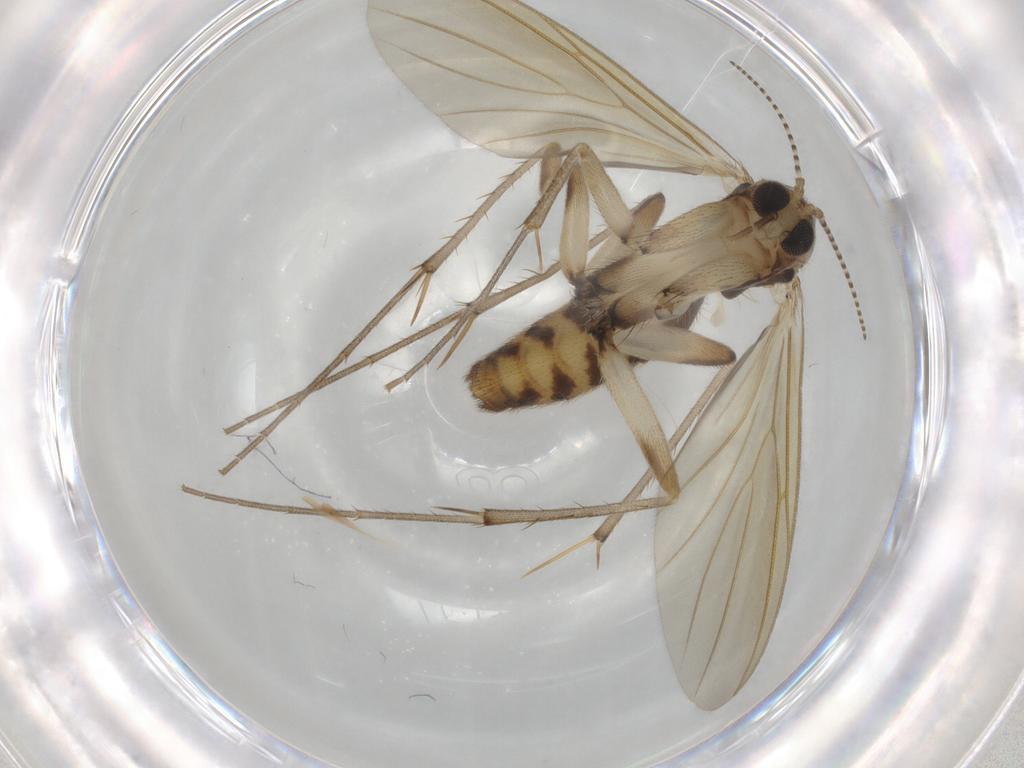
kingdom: Animalia
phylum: Arthropoda
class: Insecta
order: Diptera
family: Mycetophilidae
